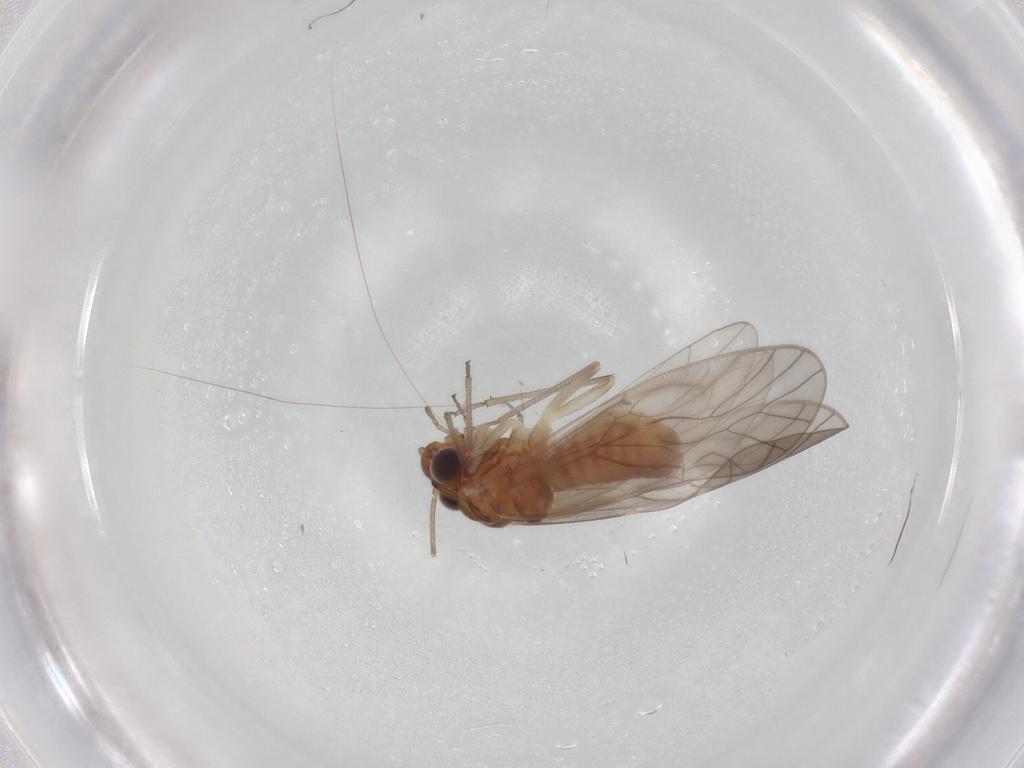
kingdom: Animalia
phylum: Arthropoda
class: Insecta
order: Psocodea
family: Caeciliusidae
